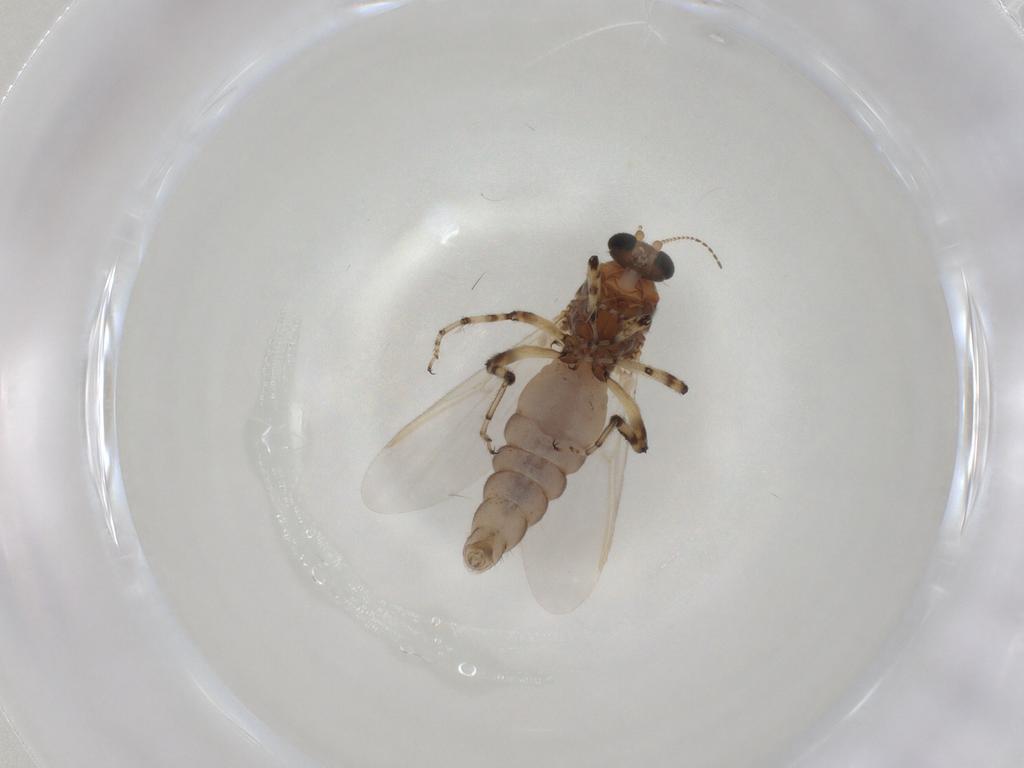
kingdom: Animalia
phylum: Arthropoda
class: Insecta
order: Diptera
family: Ceratopogonidae
